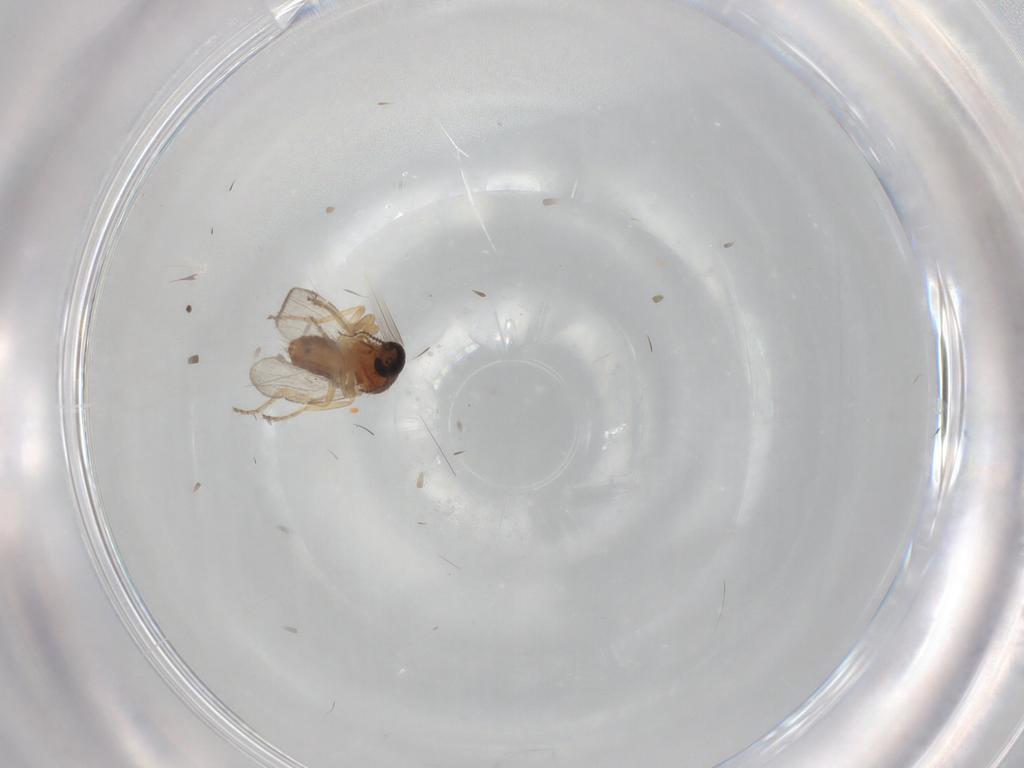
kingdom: Animalia
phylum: Arthropoda
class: Insecta
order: Diptera
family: Ceratopogonidae
